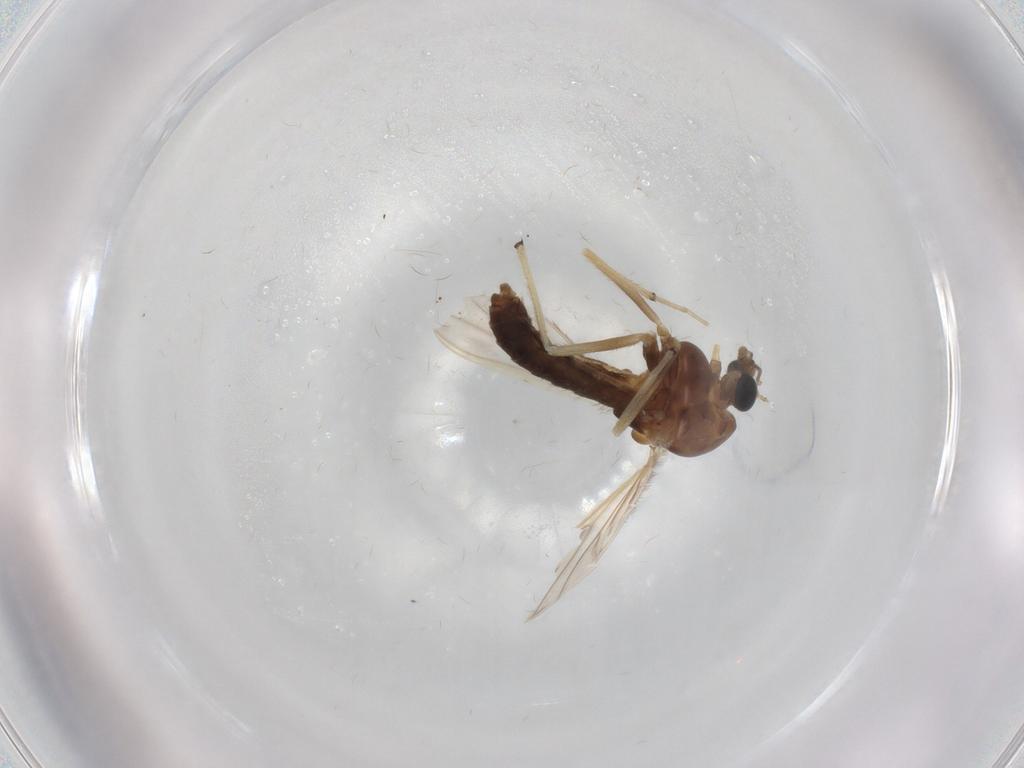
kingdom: Animalia
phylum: Arthropoda
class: Insecta
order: Diptera
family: Chironomidae
